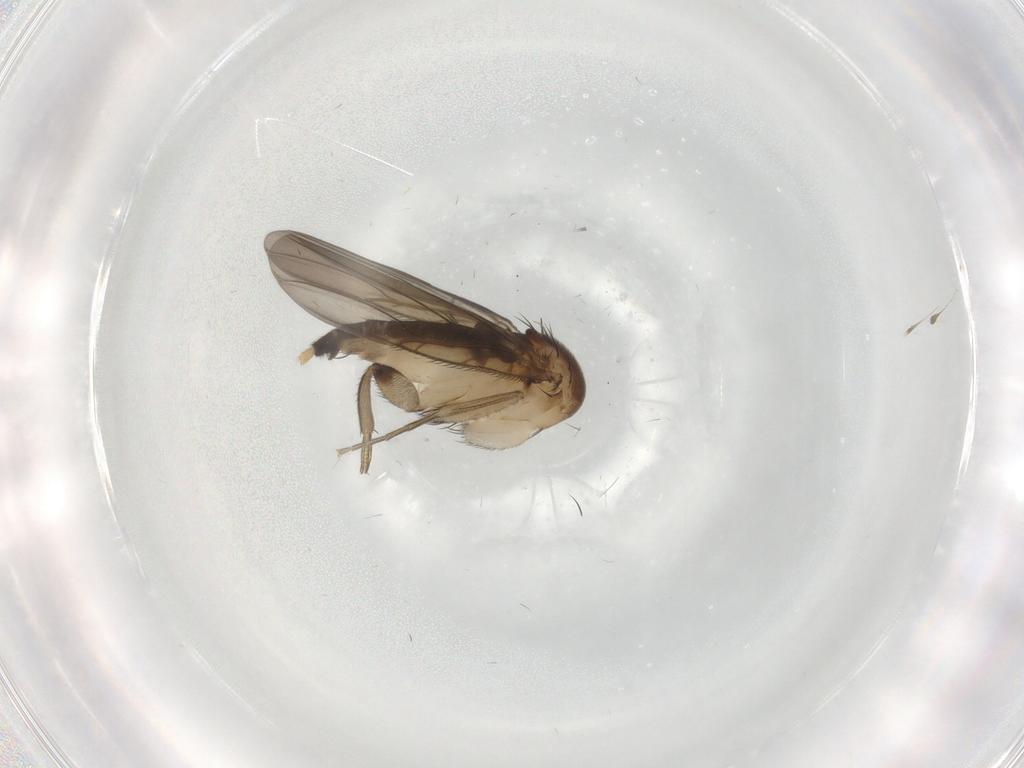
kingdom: Animalia
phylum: Arthropoda
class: Insecta
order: Diptera
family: Phoridae
